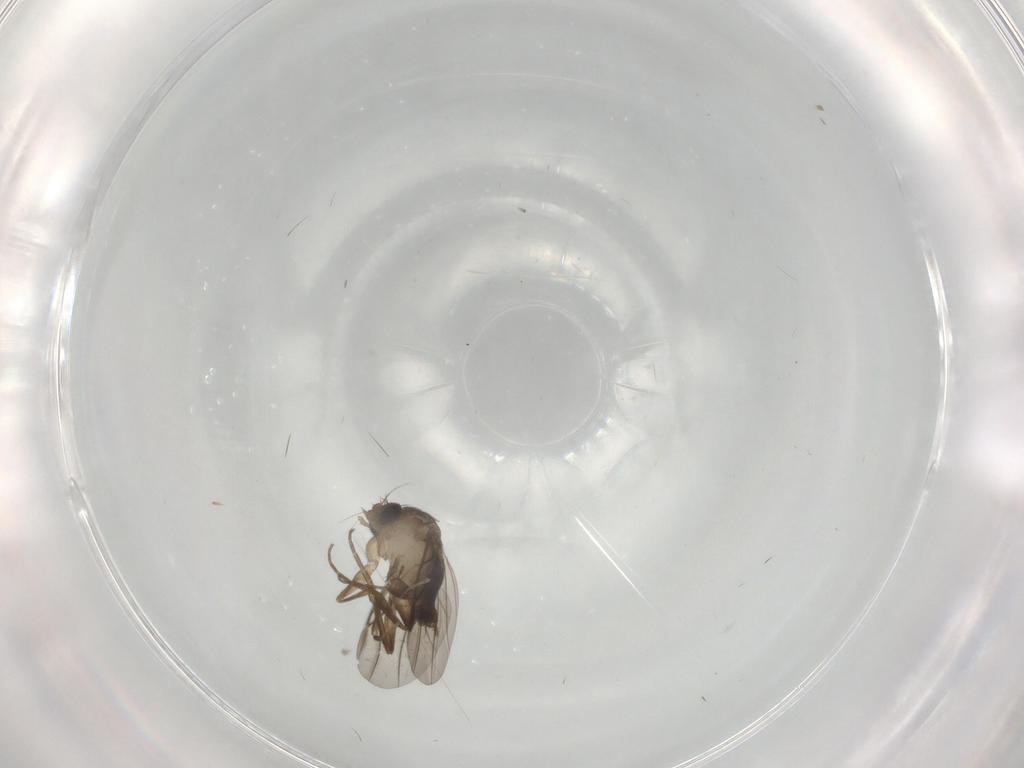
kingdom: Animalia
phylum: Arthropoda
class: Insecta
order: Diptera
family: Phoridae
